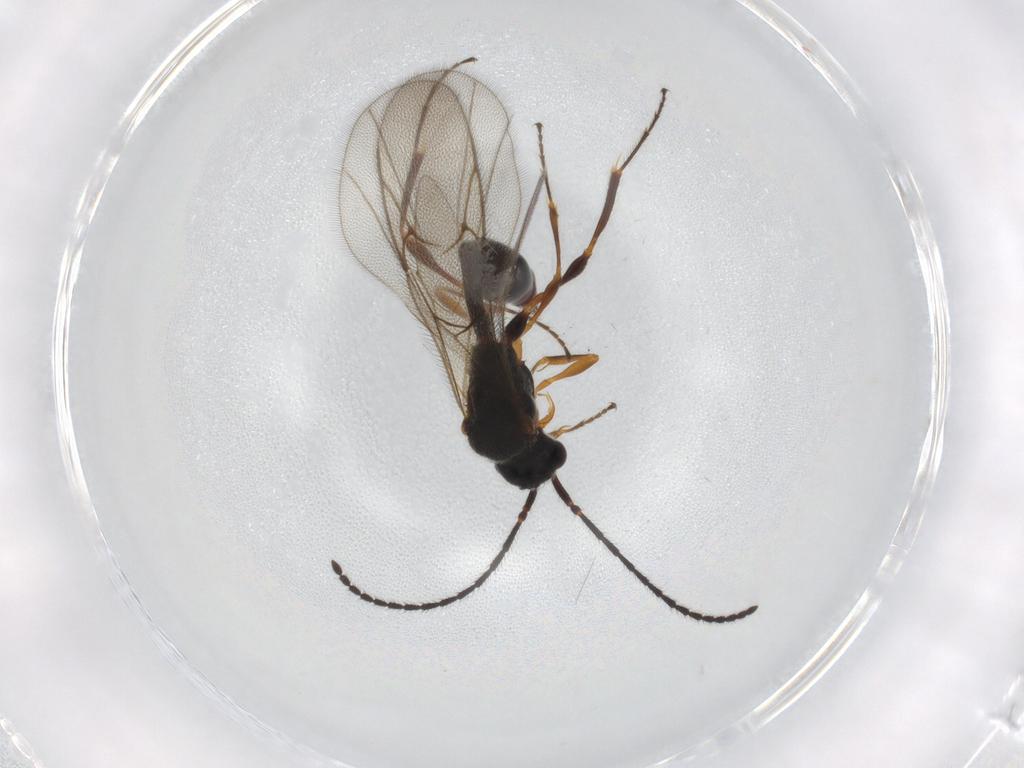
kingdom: Animalia
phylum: Arthropoda
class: Insecta
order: Hymenoptera
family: Diapriidae
